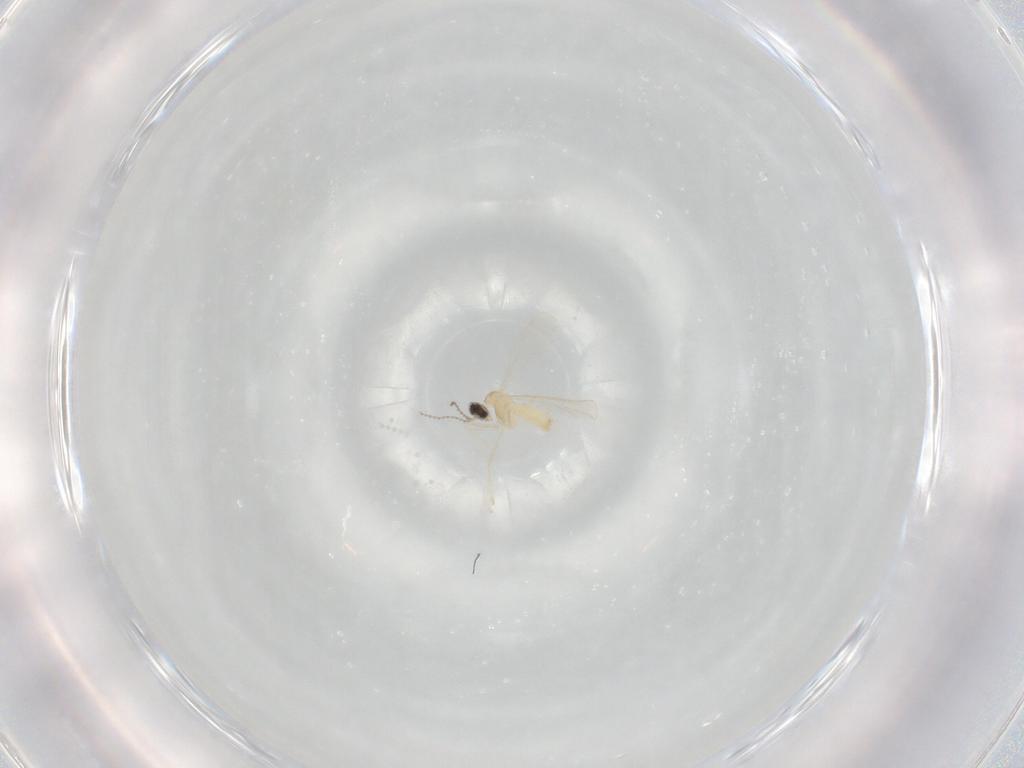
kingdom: Animalia
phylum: Arthropoda
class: Insecta
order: Diptera
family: Cecidomyiidae
